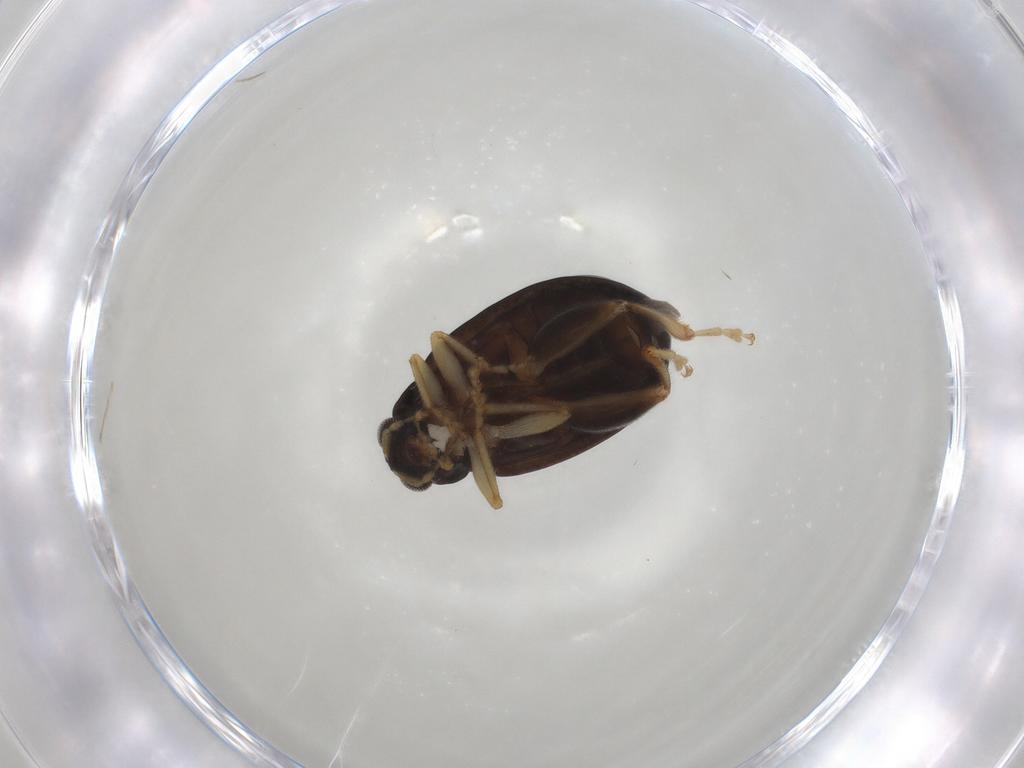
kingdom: Animalia
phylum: Arthropoda
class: Insecta
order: Coleoptera
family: Chrysomelidae
